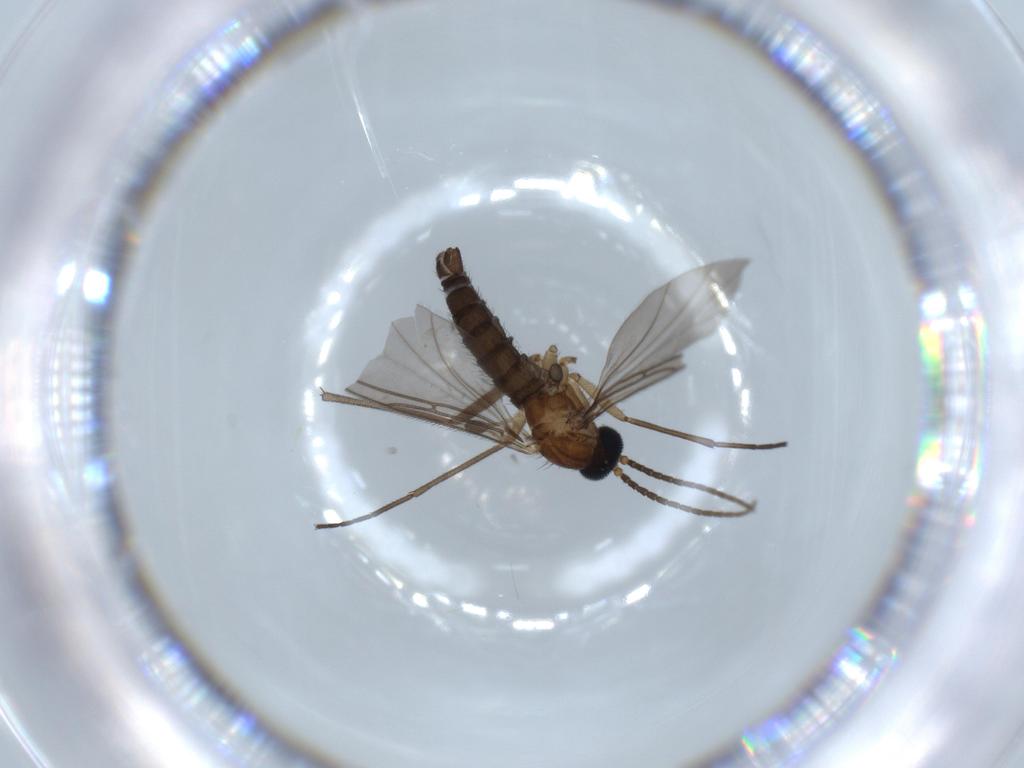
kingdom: Animalia
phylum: Arthropoda
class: Insecta
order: Diptera
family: Sciaridae
